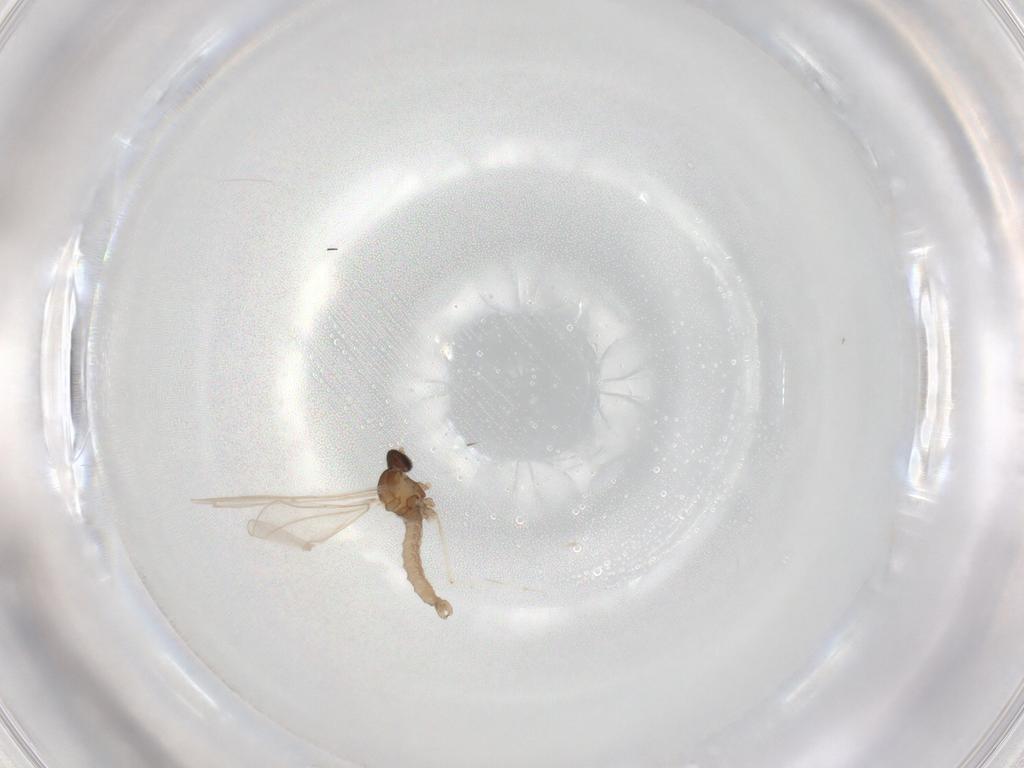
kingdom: Animalia
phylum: Arthropoda
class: Insecta
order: Diptera
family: Cecidomyiidae
